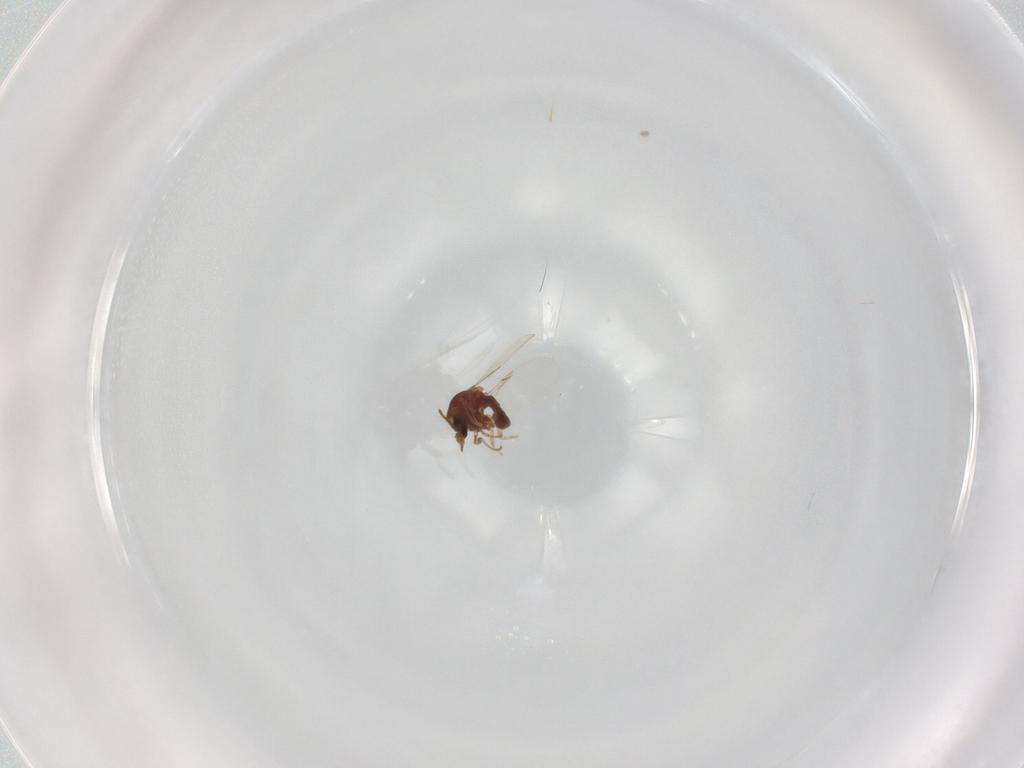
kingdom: Animalia
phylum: Arthropoda
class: Insecta
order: Diptera
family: Ceratopogonidae
